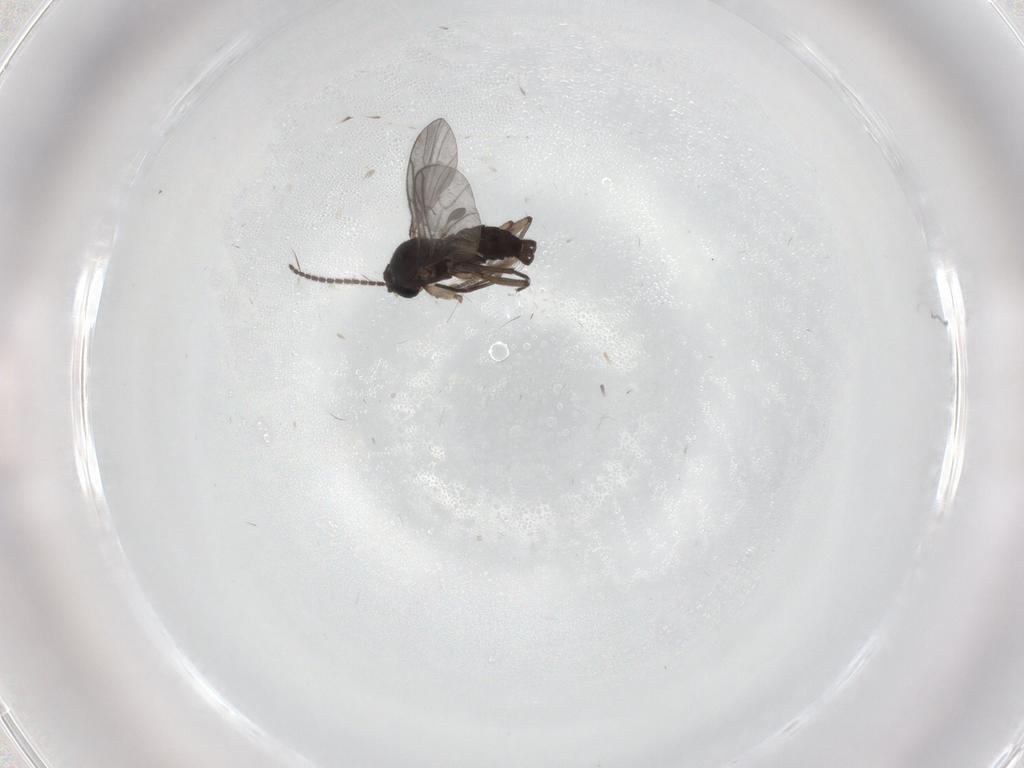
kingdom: Animalia
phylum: Arthropoda
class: Insecta
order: Diptera
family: Sciaridae
